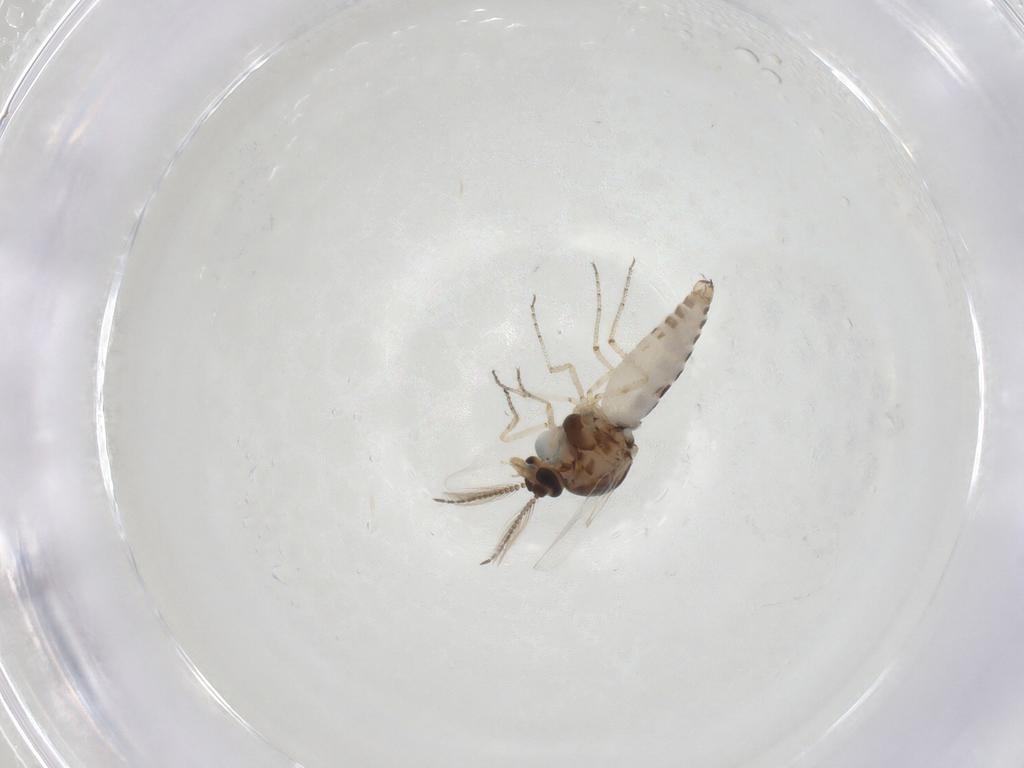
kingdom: Animalia
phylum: Arthropoda
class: Insecta
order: Diptera
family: Ceratopogonidae
